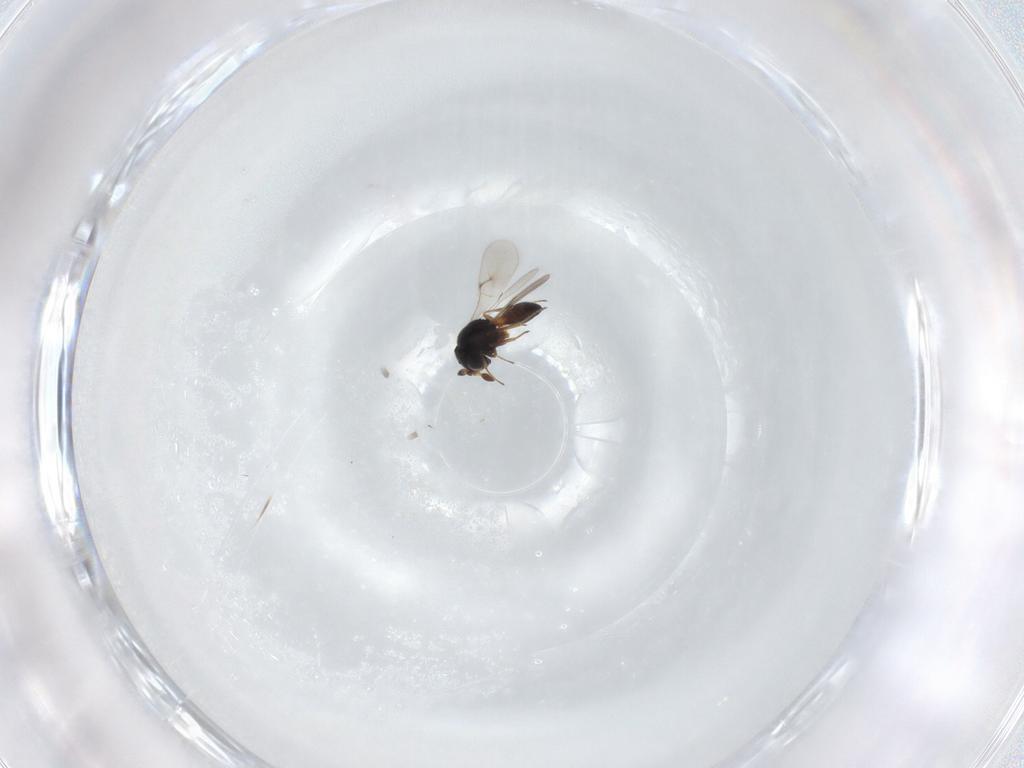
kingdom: Animalia
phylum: Arthropoda
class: Insecta
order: Hymenoptera
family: Scelionidae
